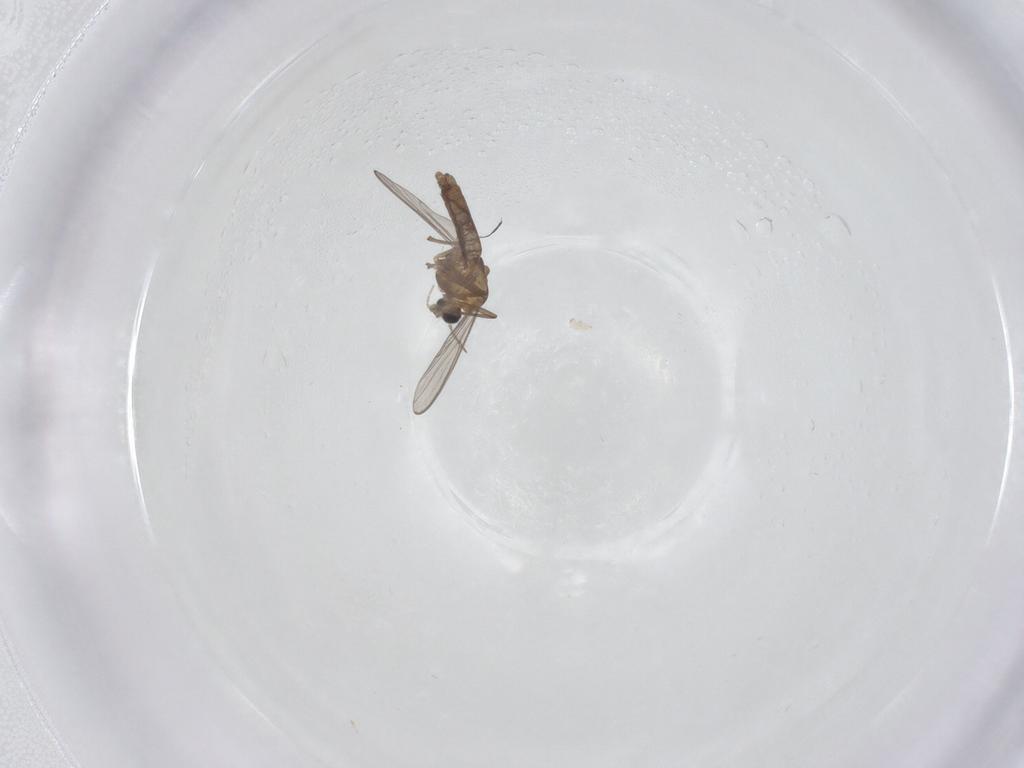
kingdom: Animalia
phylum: Arthropoda
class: Insecta
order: Diptera
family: Chironomidae
